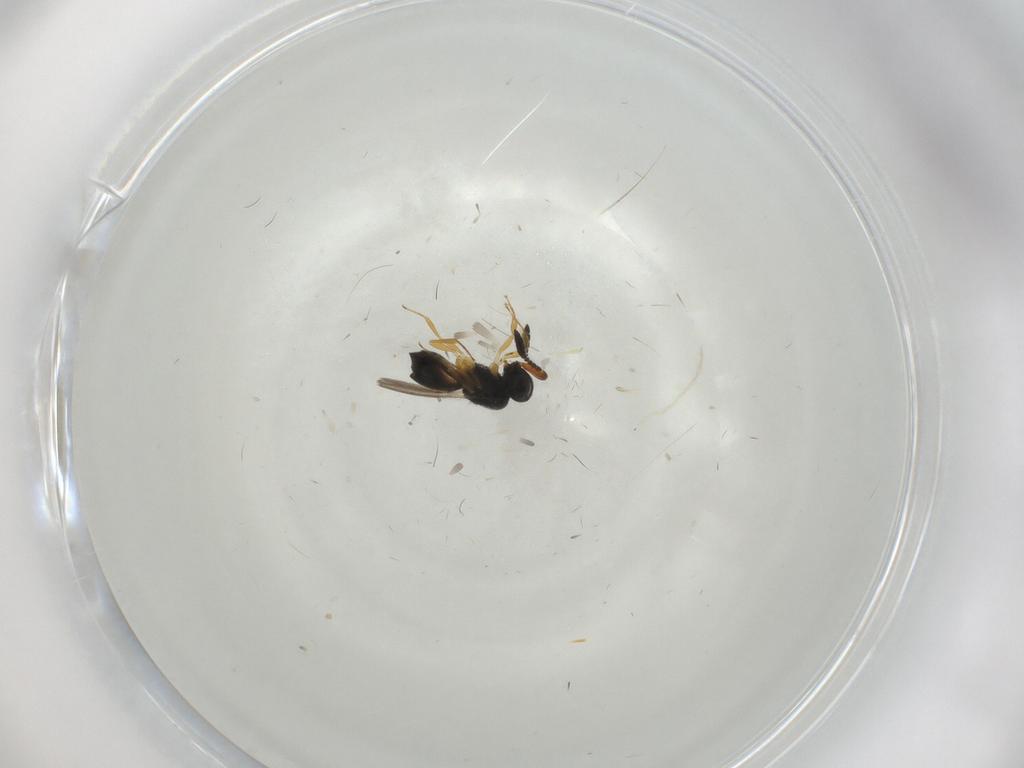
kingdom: Animalia
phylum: Arthropoda
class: Insecta
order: Hymenoptera
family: Scelionidae
